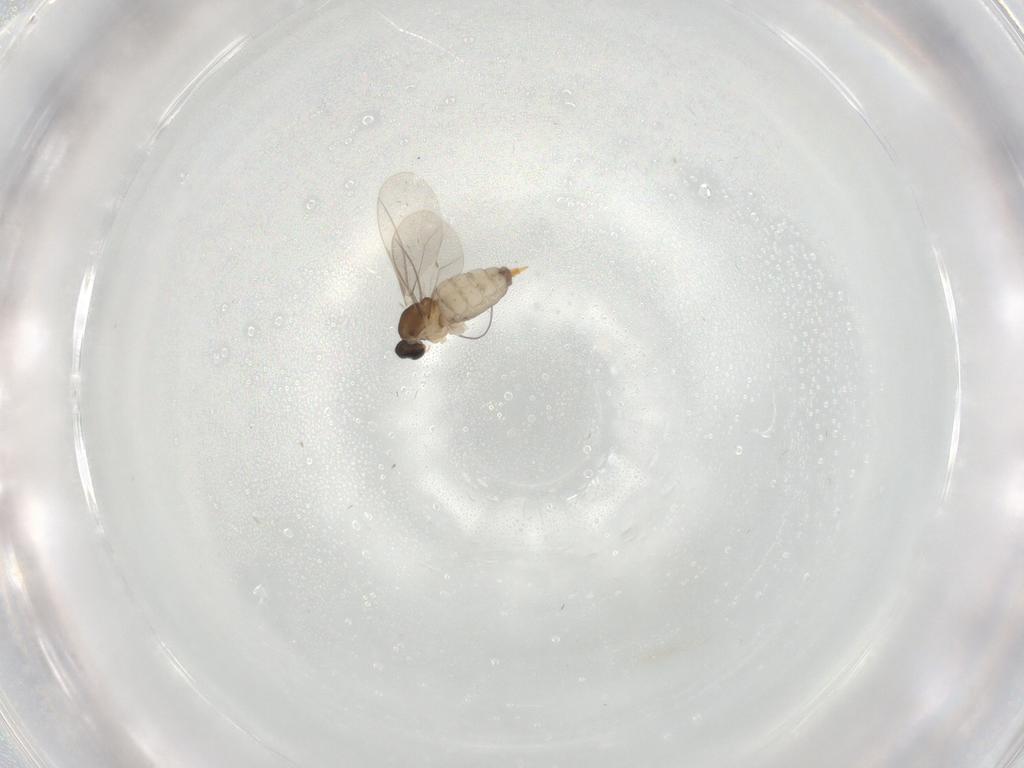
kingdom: Animalia
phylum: Arthropoda
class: Insecta
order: Diptera
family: Cecidomyiidae
